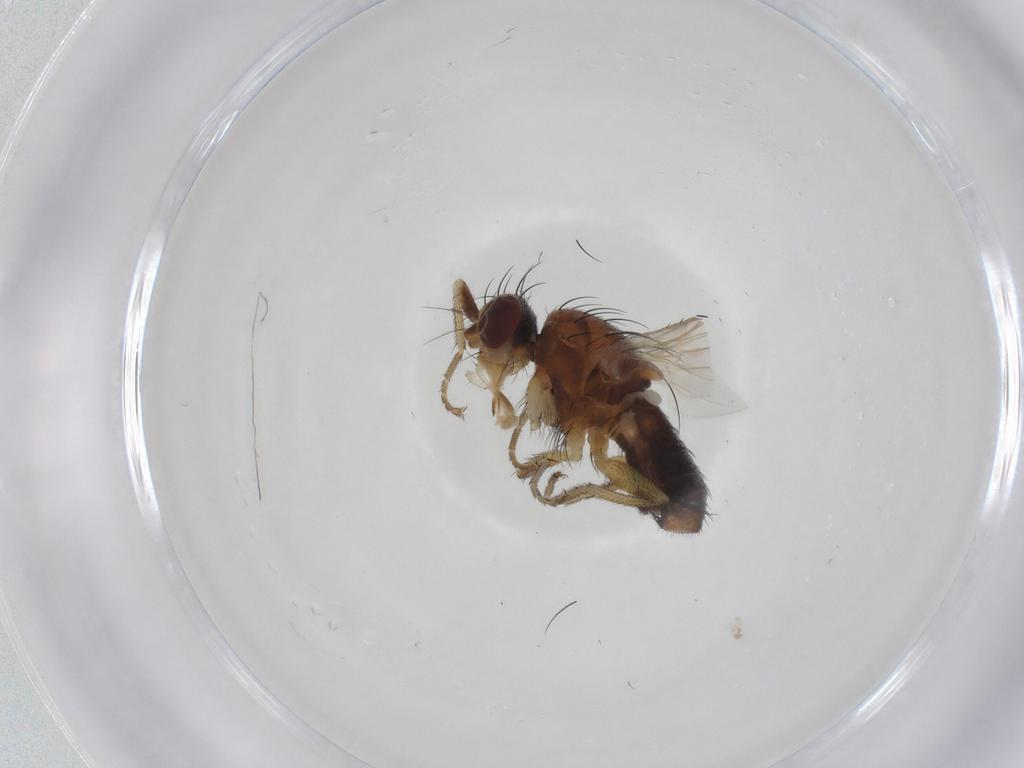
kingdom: Animalia
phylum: Arthropoda
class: Insecta
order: Diptera
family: Heleomyzidae
